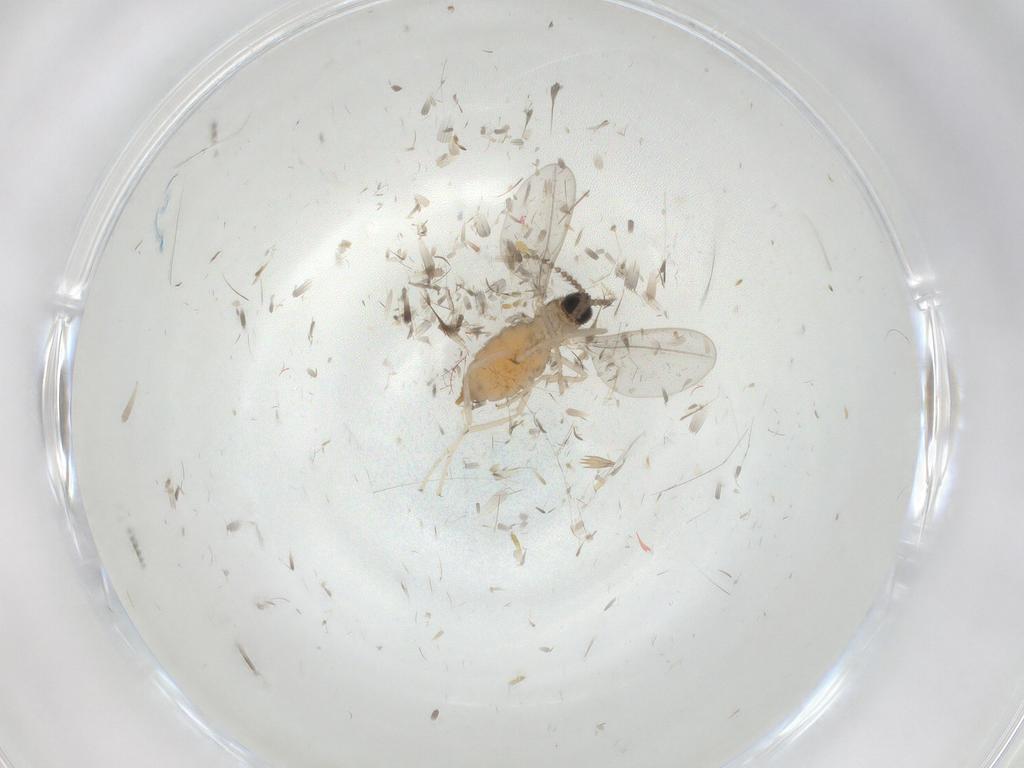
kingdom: Animalia
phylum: Arthropoda
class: Insecta
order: Diptera
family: Cecidomyiidae
